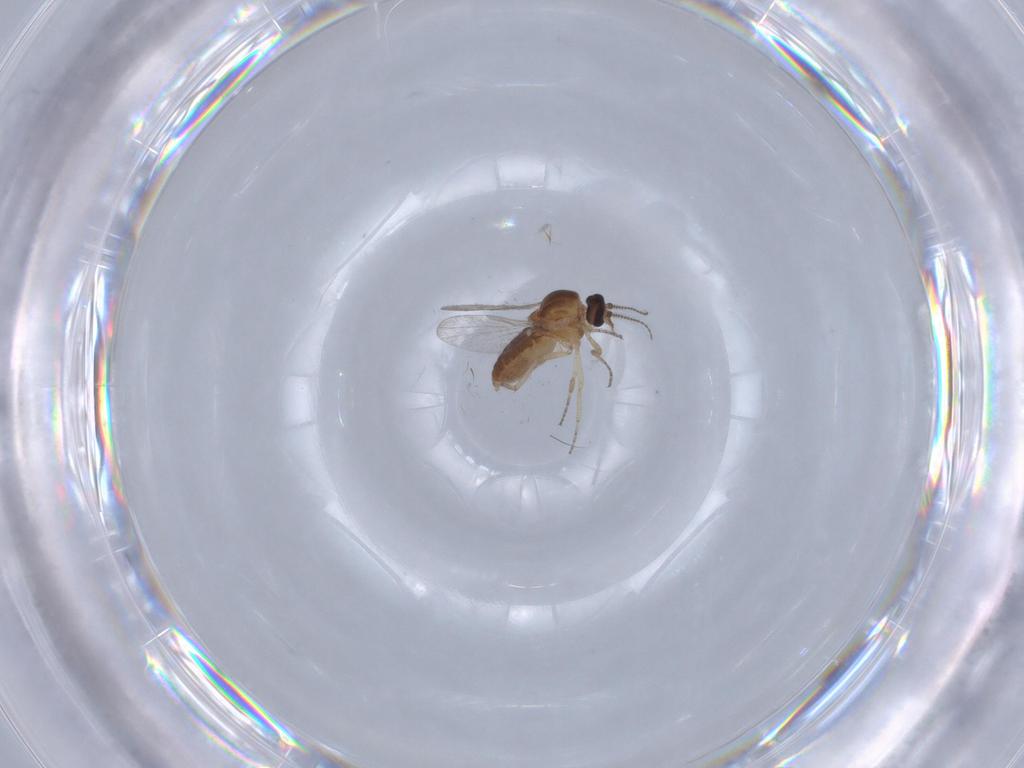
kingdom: Animalia
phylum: Arthropoda
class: Insecta
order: Diptera
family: Ceratopogonidae
